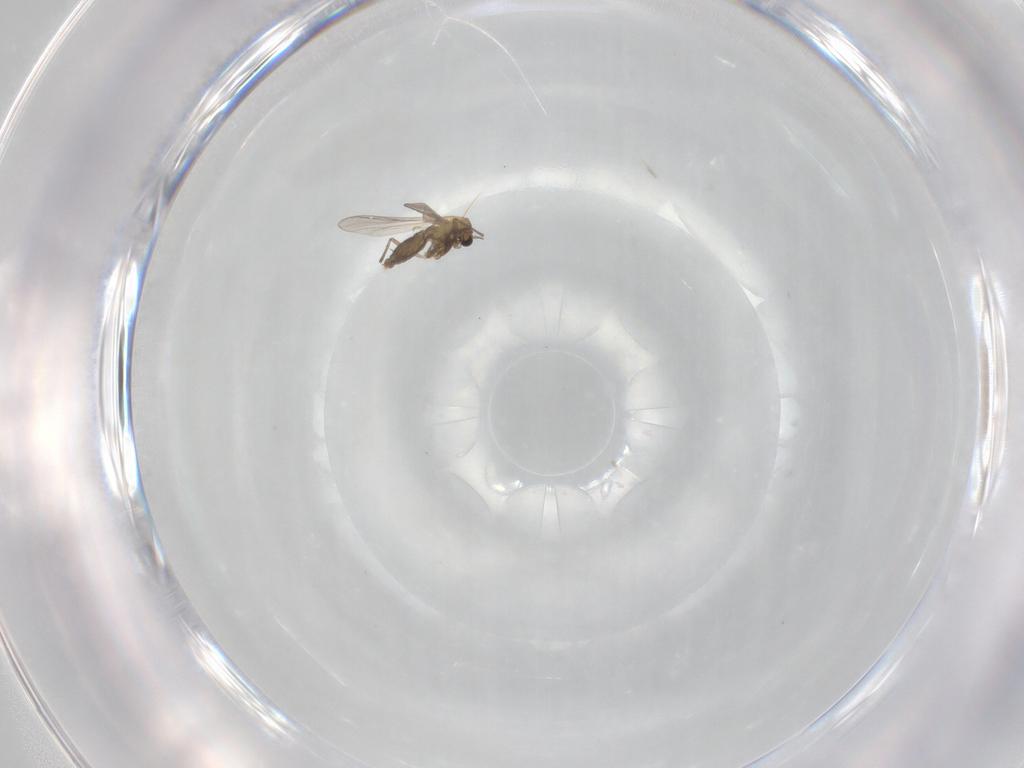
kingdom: Animalia
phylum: Arthropoda
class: Insecta
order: Diptera
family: Chironomidae
